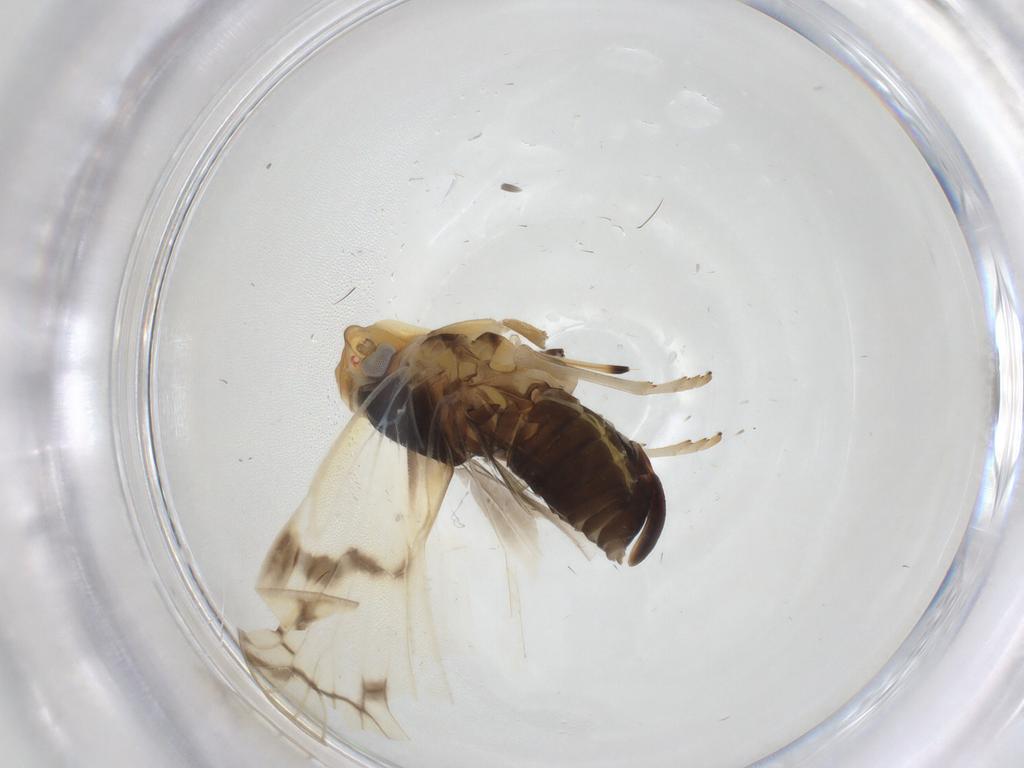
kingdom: Animalia
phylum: Arthropoda
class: Insecta
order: Hemiptera
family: Cixiidae
